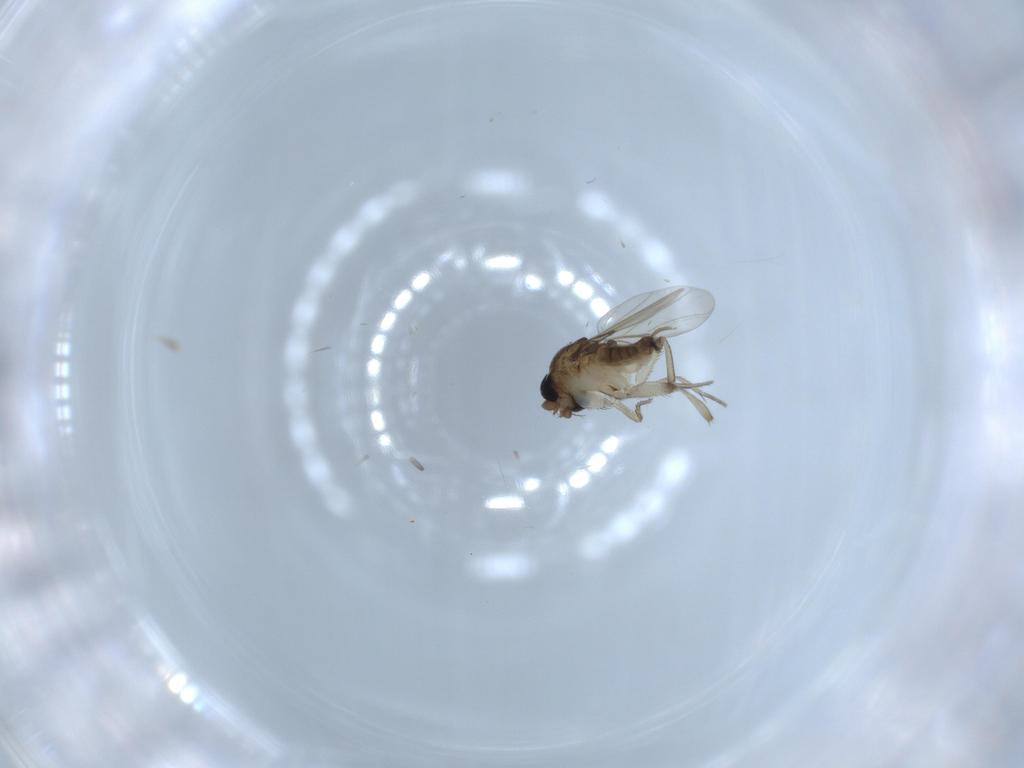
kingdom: Animalia
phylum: Arthropoda
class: Insecta
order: Diptera
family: Phoridae
